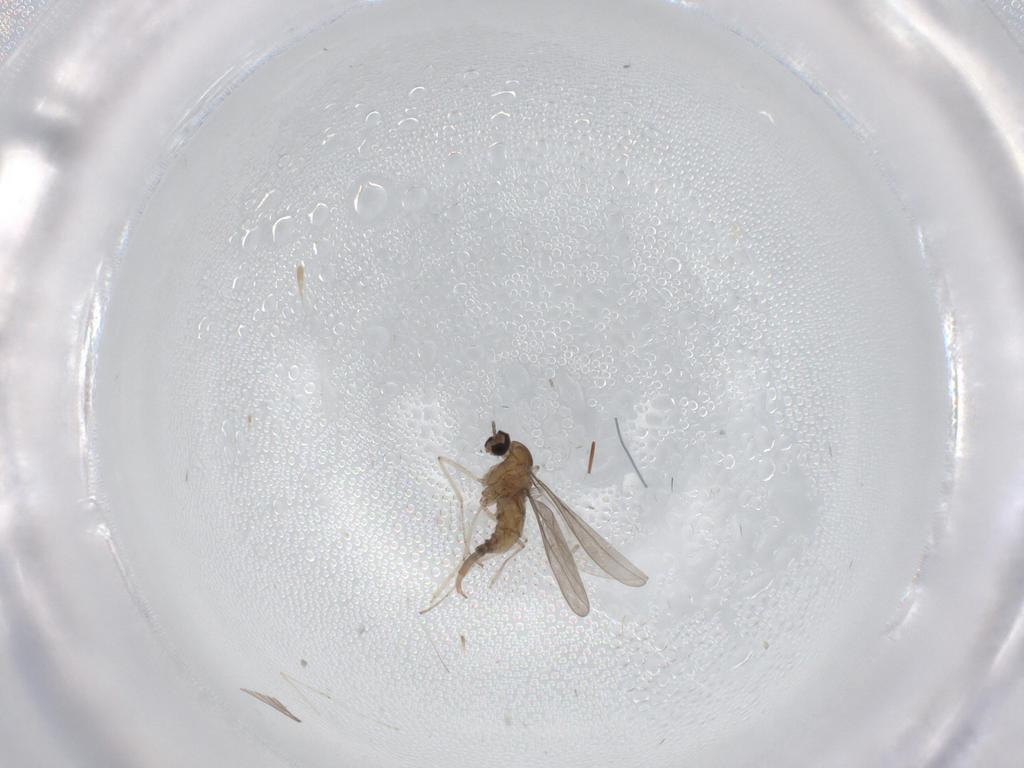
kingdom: Animalia
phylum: Arthropoda
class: Insecta
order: Diptera
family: Cecidomyiidae
